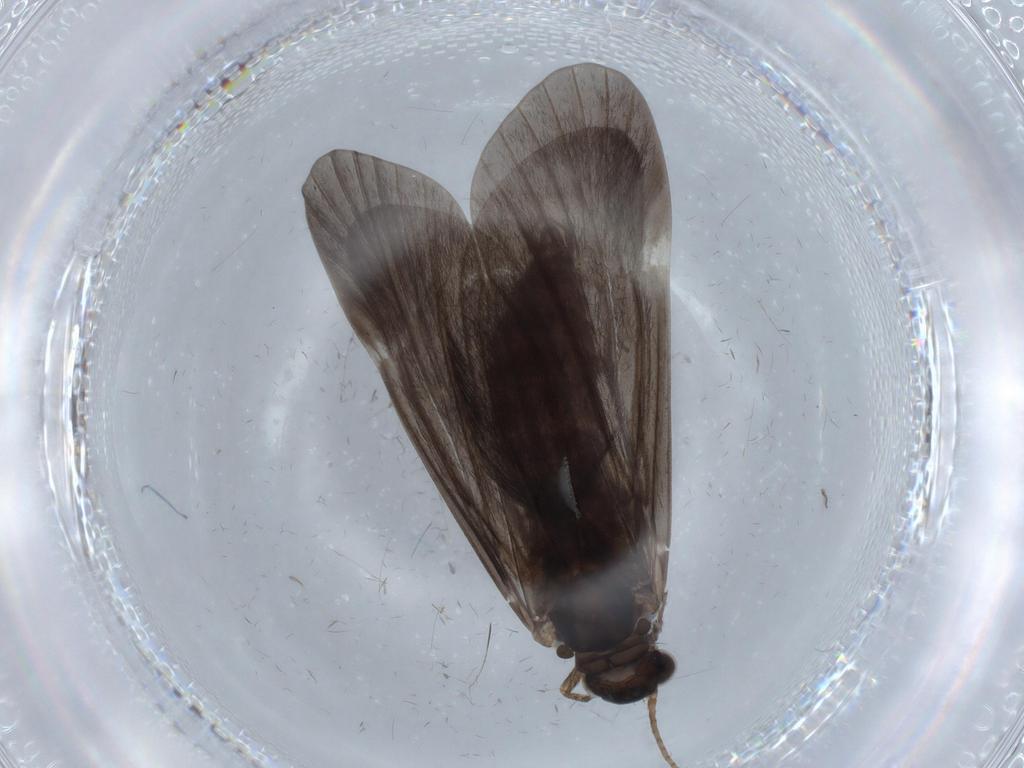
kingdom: Animalia
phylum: Arthropoda
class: Insecta
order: Trichoptera
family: Hydropsychidae
